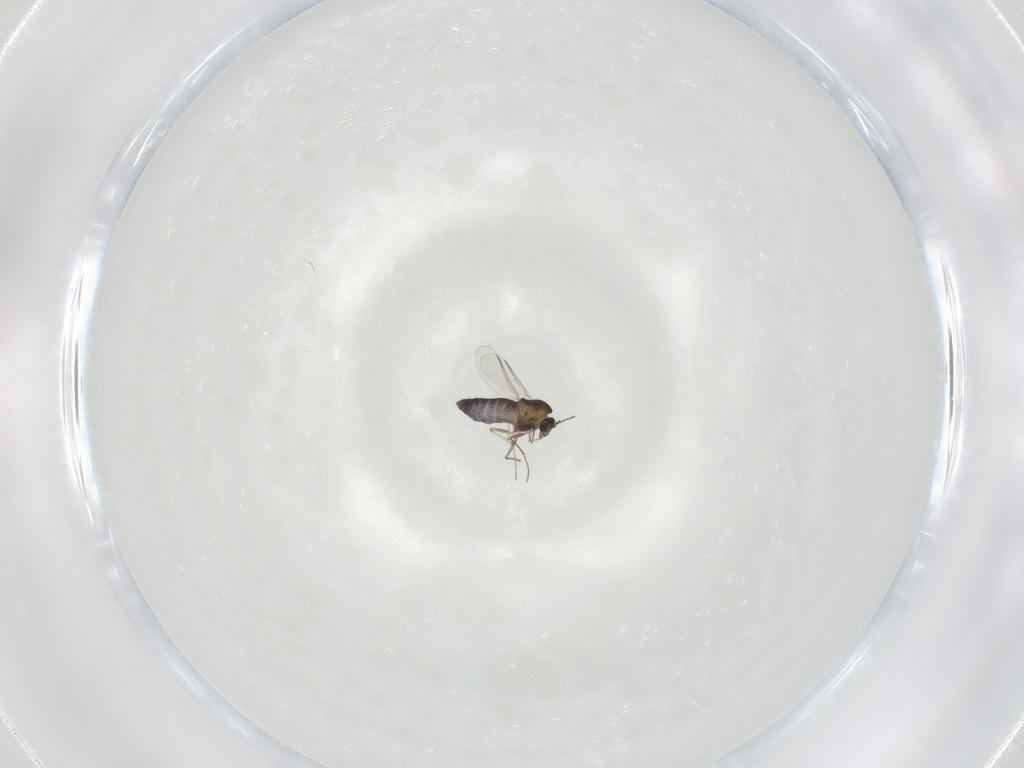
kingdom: Animalia
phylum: Arthropoda
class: Insecta
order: Diptera
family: Chironomidae
